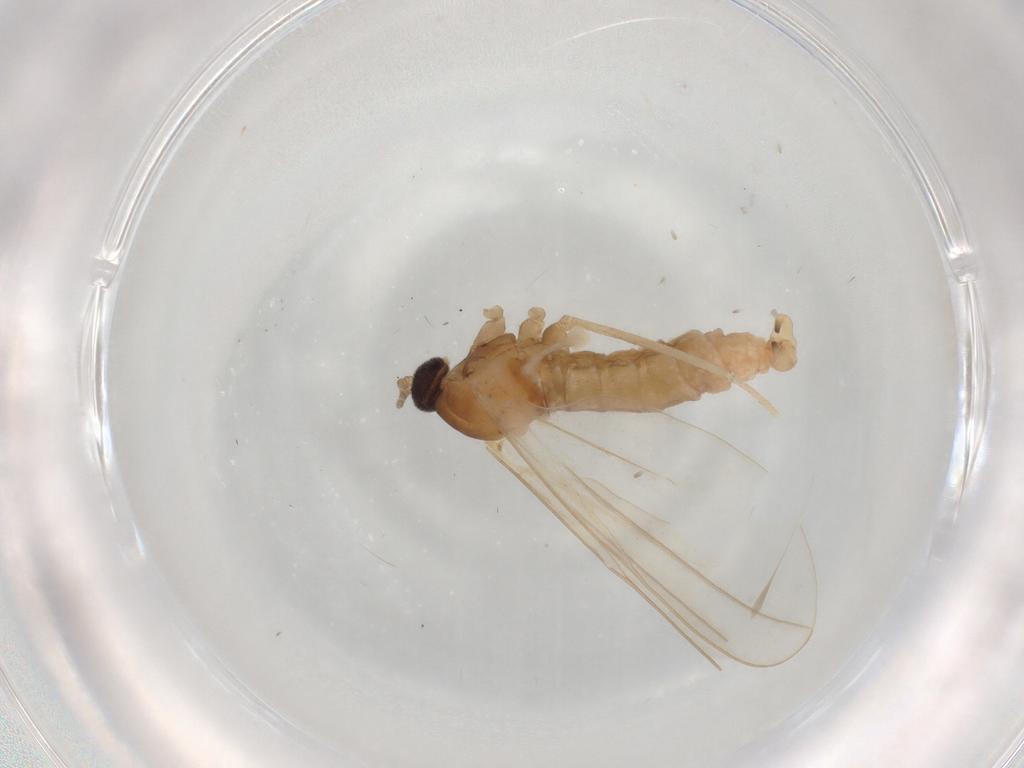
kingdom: Animalia
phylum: Arthropoda
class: Insecta
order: Diptera
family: Cecidomyiidae
